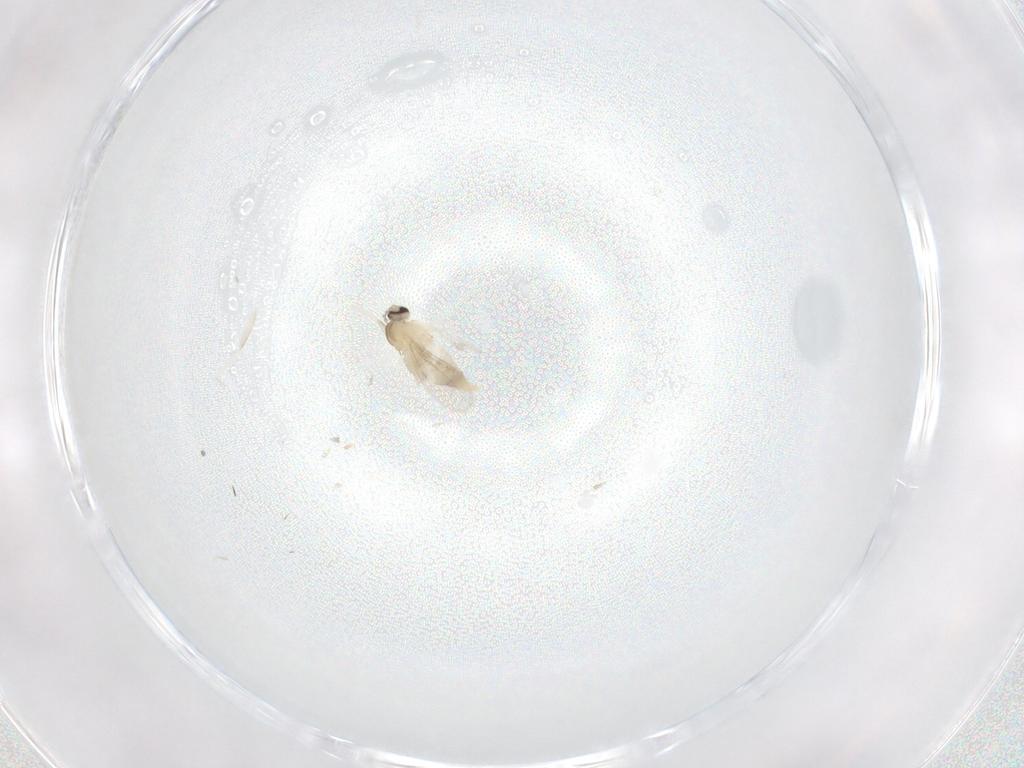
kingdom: Animalia
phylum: Arthropoda
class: Insecta
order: Diptera
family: Cecidomyiidae
